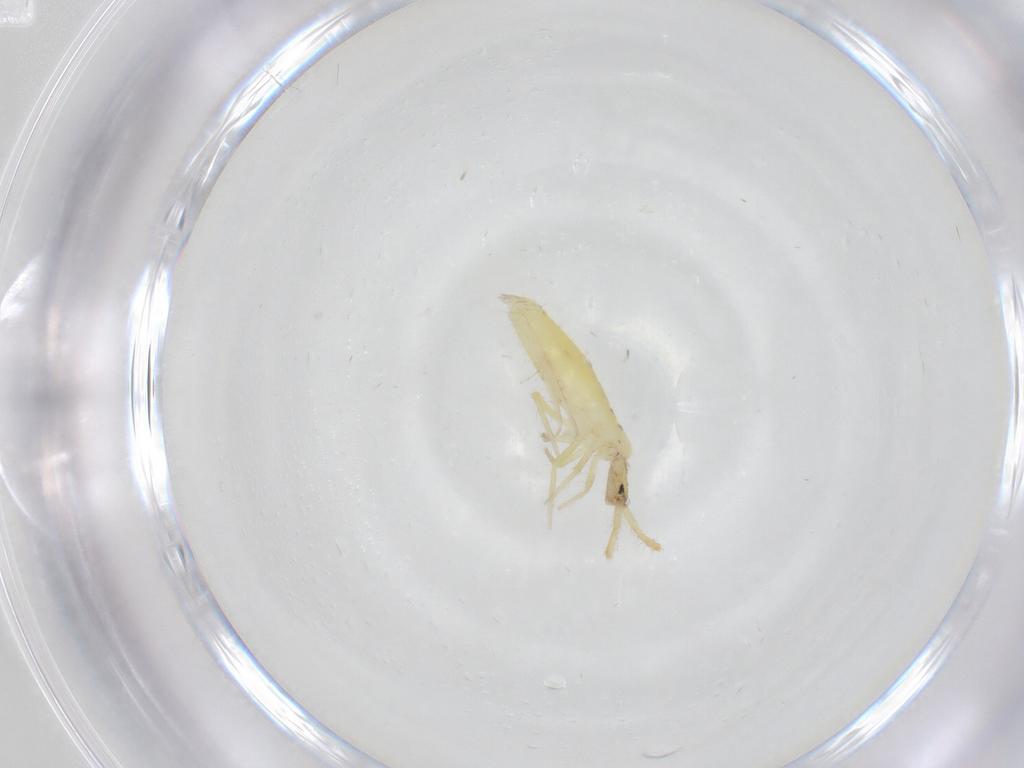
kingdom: Animalia
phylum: Arthropoda
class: Collembola
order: Entomobryomorpha
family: Entomobryidae
